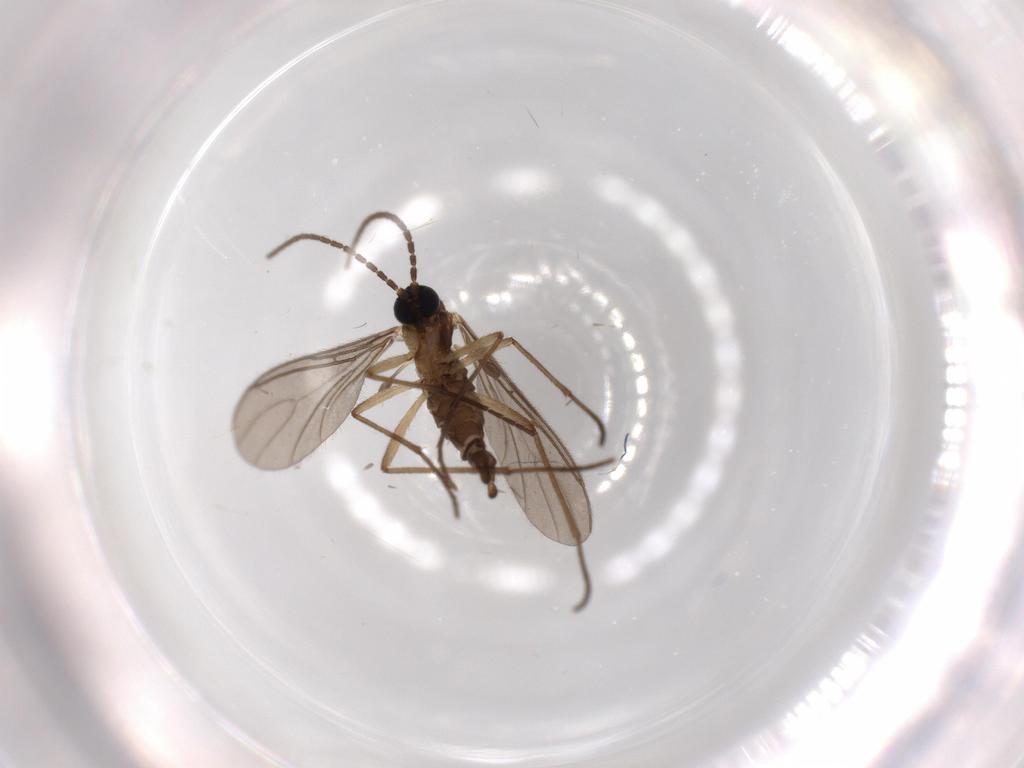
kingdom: Animalia
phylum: Arthropoda
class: Insecta
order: Diptera
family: Sciaridae
